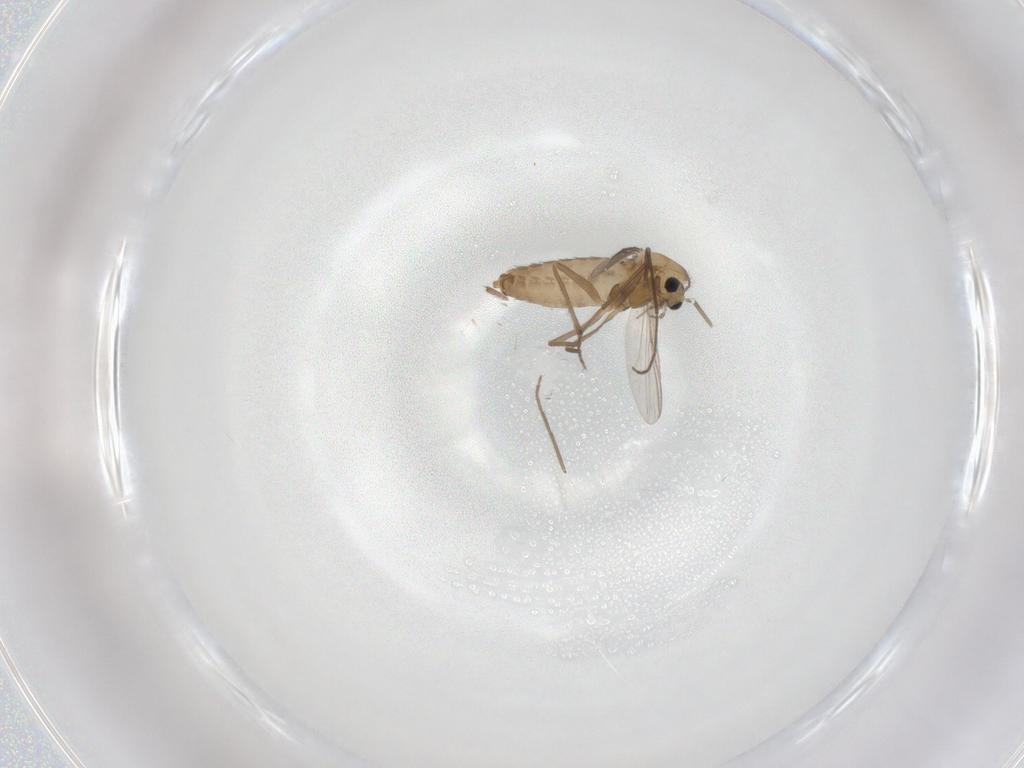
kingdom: Animalia
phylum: Arthropoda
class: Insecta
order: Diptera
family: Chironomidae
